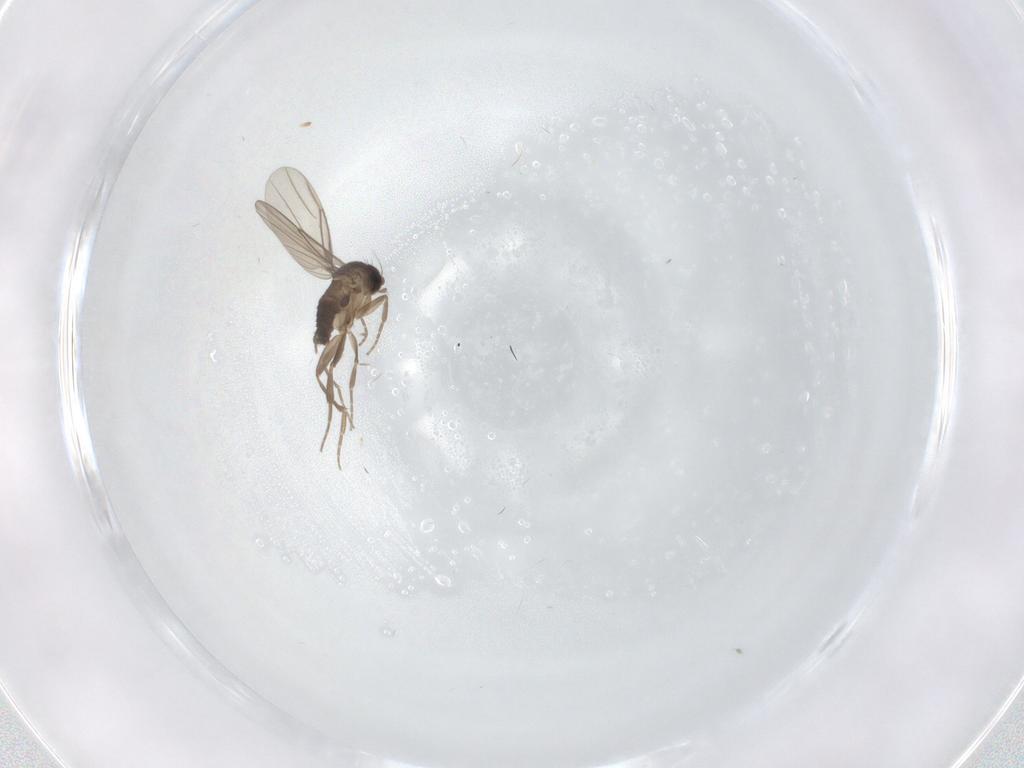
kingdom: Animalia
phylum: Arthropoda
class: Insecta
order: Diptera
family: Phoridae
